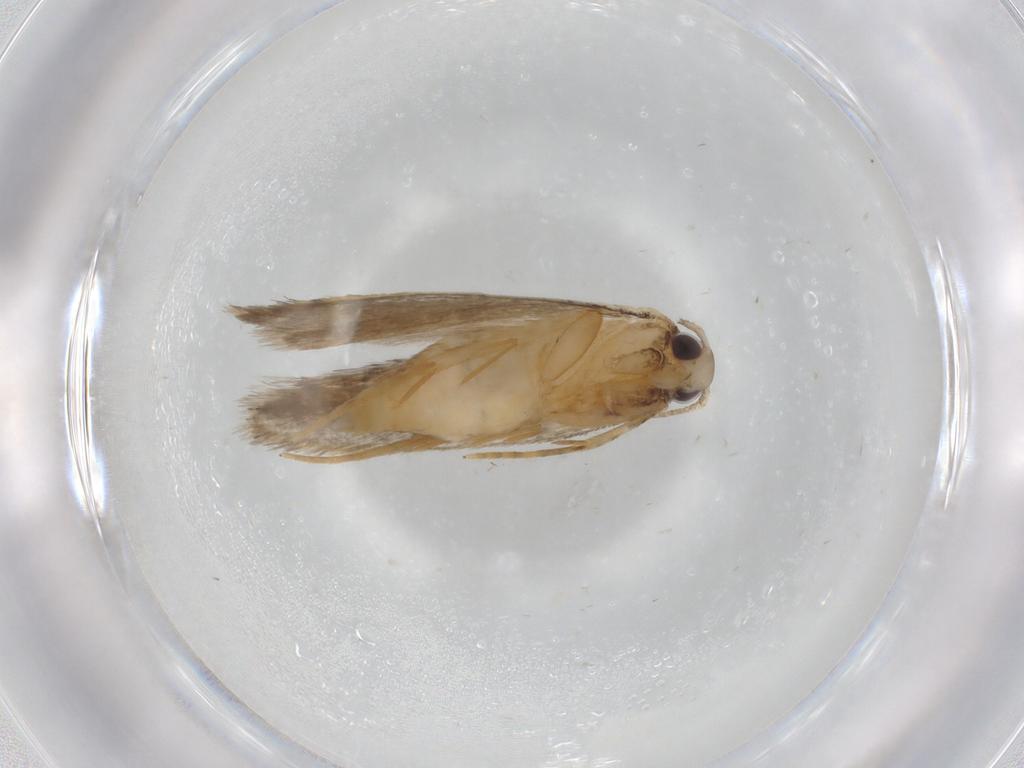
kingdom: Animalia
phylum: Arthropoda
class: Insecta
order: Lepidoptera
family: Autostichidae
